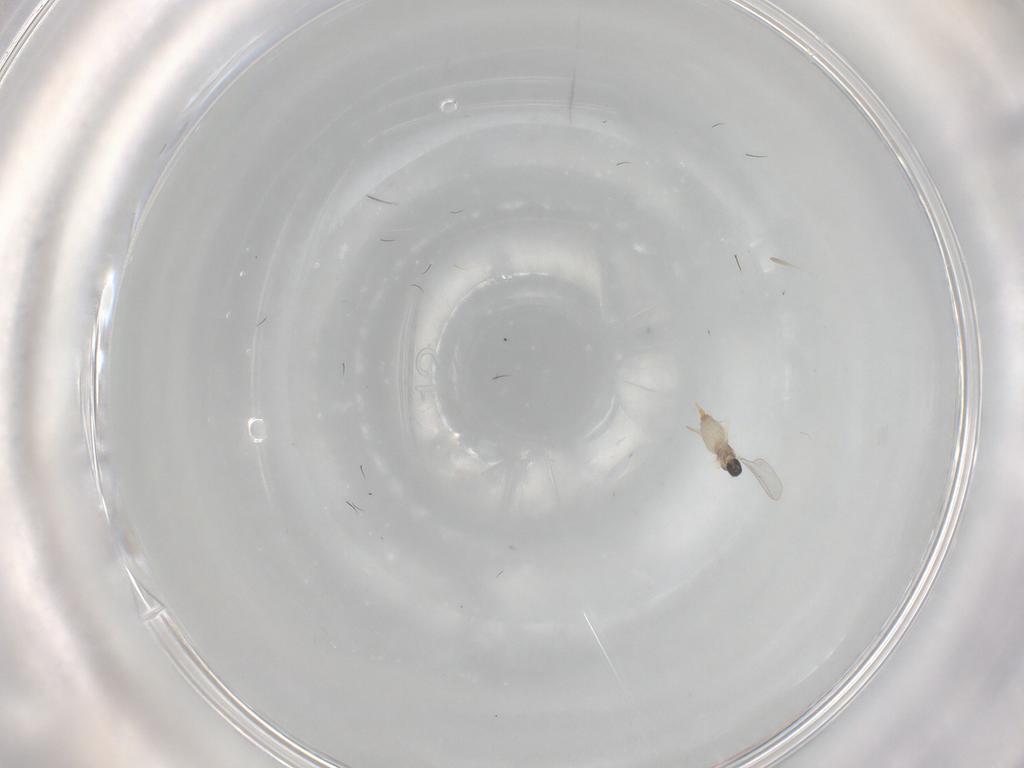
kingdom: Animalia
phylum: Arthropoda
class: Insecta
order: Diptera
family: Cecidomyiidae
